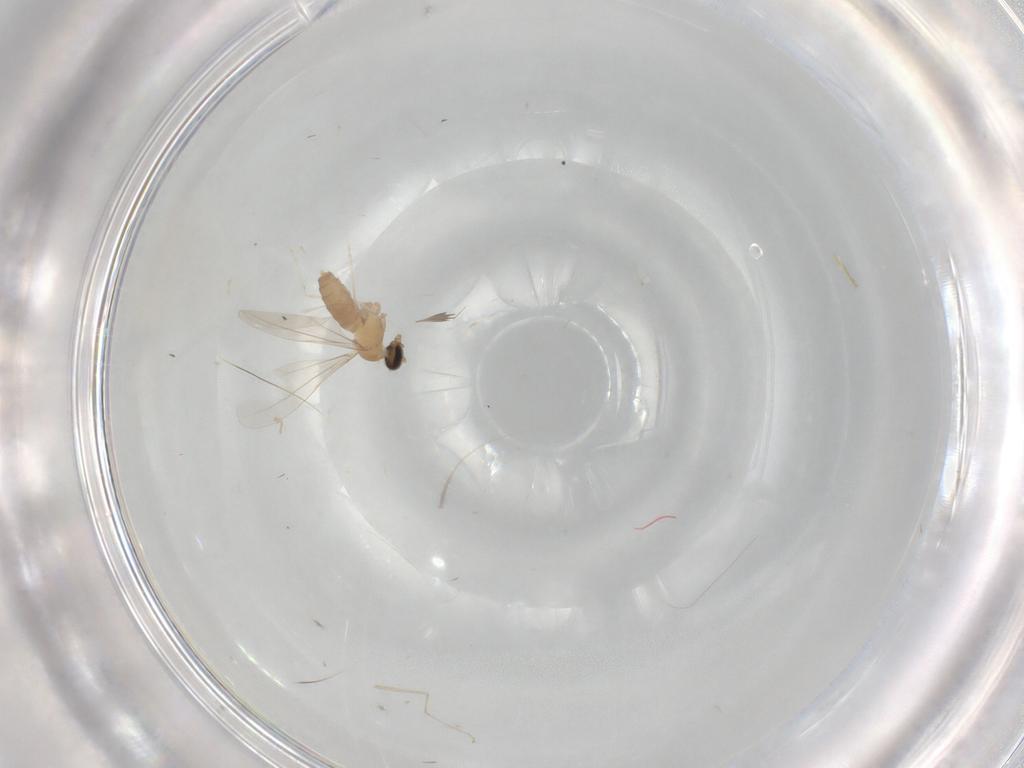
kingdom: Animalia
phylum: Arthropoda
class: Insecta
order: Diptera
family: Cecidomyiidae
